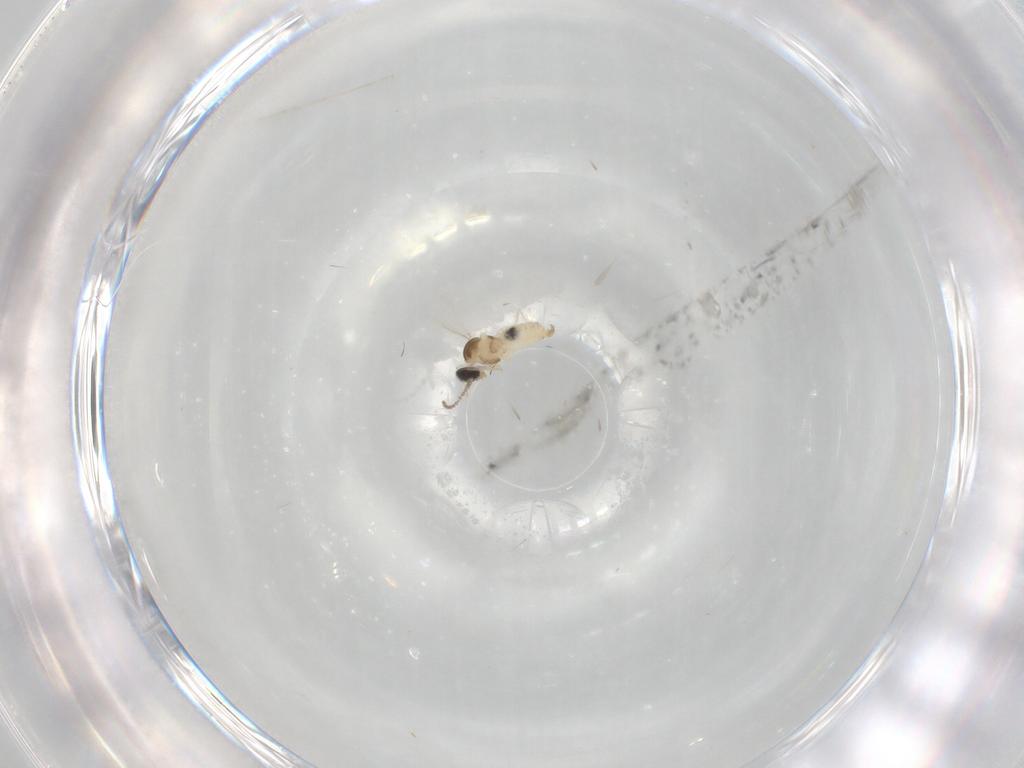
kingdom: Animalia
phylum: Arthropoda
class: Insecta
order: Diptera
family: Cecidomyiidae
